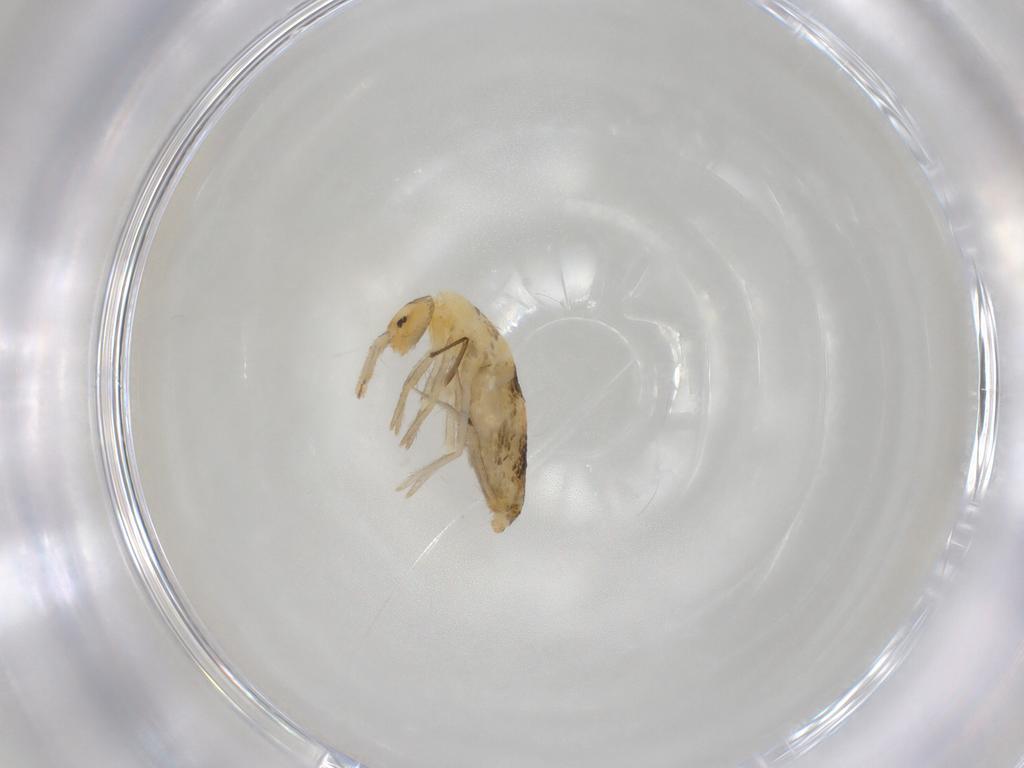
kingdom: Animalia
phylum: Arthropoda
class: Collembola
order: Entomobryomorpha
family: Entomobryidae
